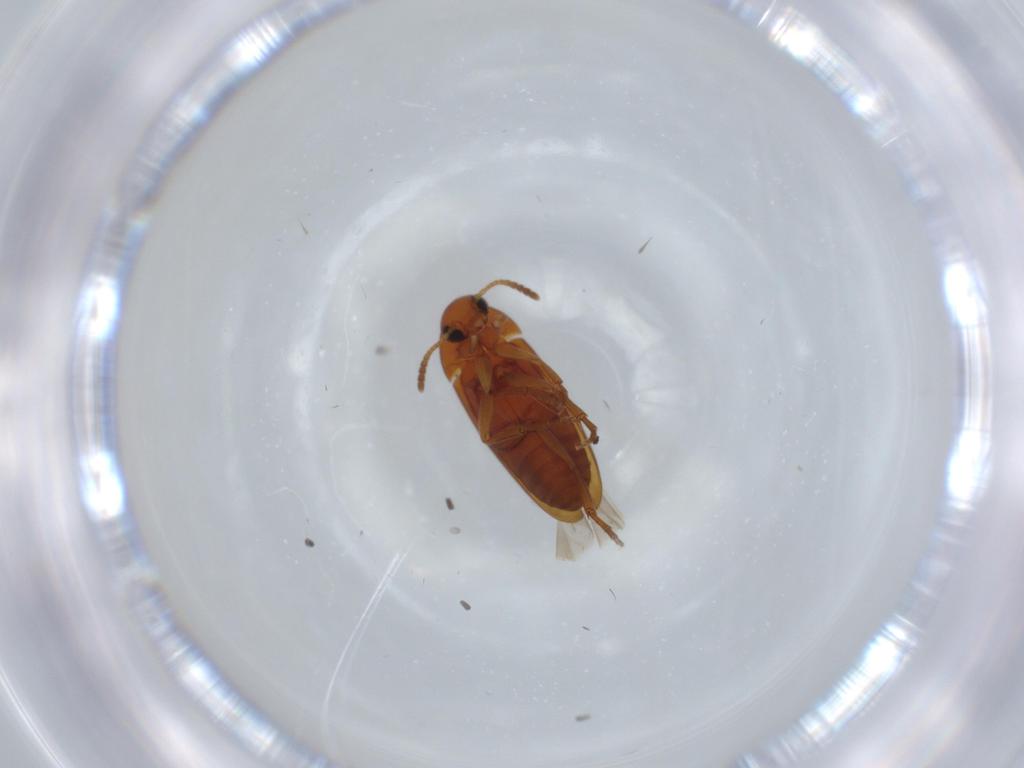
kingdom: Animalia
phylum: Arthropoda
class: Insecta
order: Coleoptera
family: Scraptiidae
